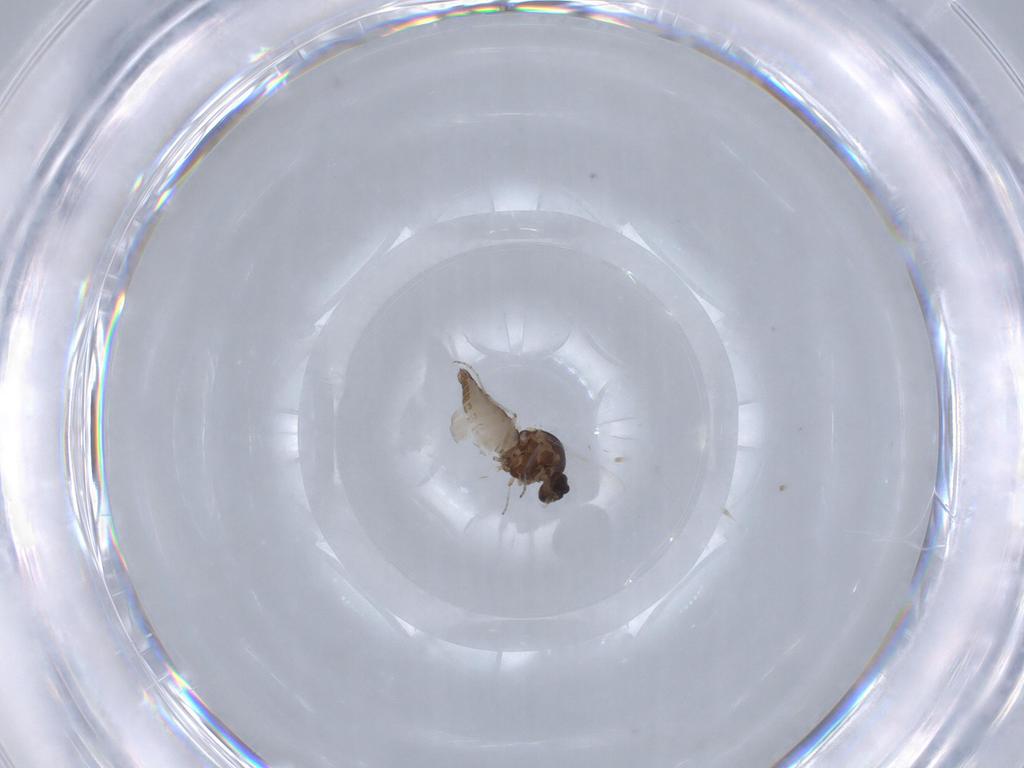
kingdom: Animalia
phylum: Arthropoda
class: Insecta
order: Diptera
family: Ceratopogonidae
